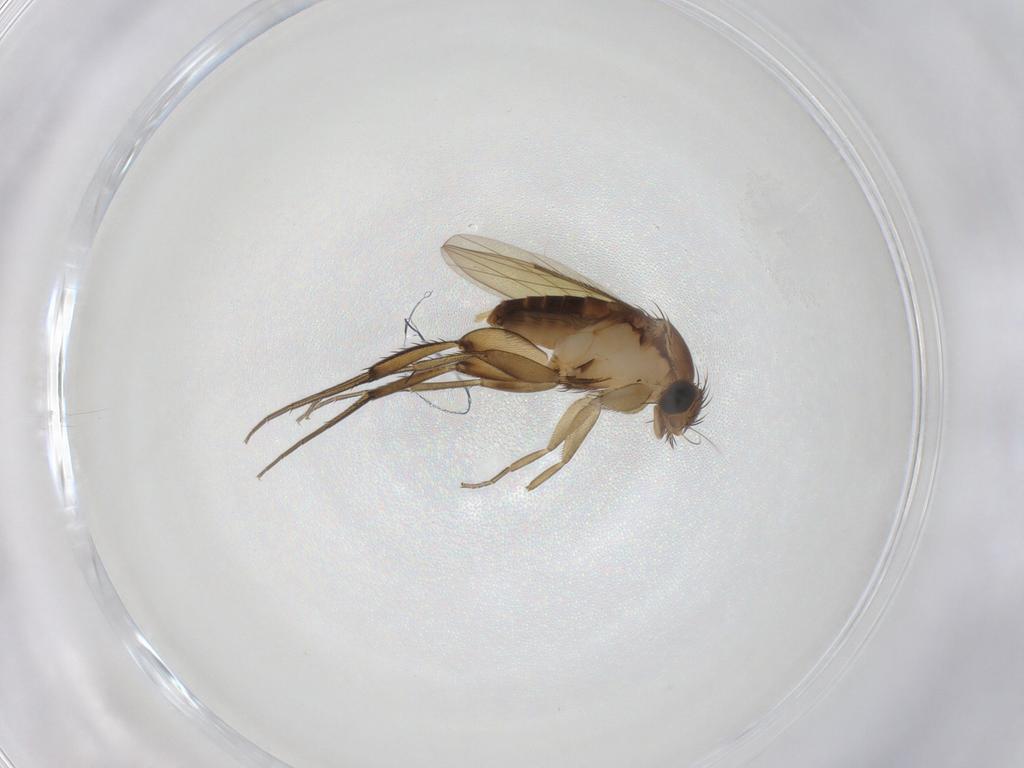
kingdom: Animalia
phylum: Arthropoda
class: Insecta
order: Diptera
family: Phoridae
